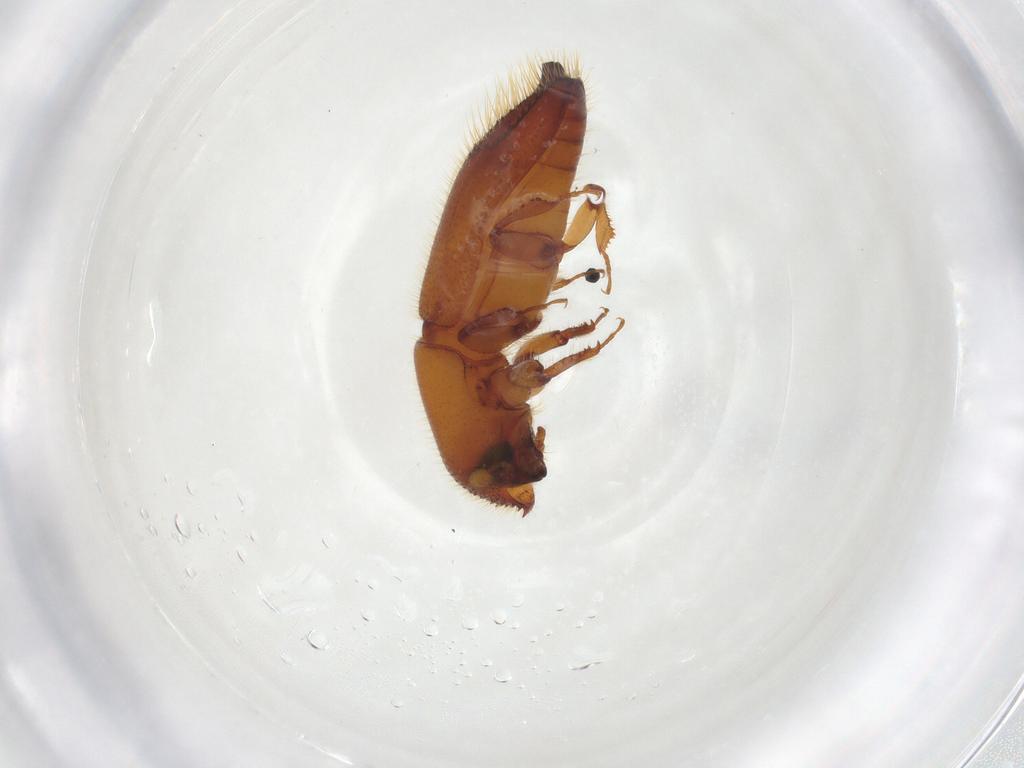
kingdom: Animalia
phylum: Arthropoda
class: Insecta
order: Coleoptera
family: Curculionidae
